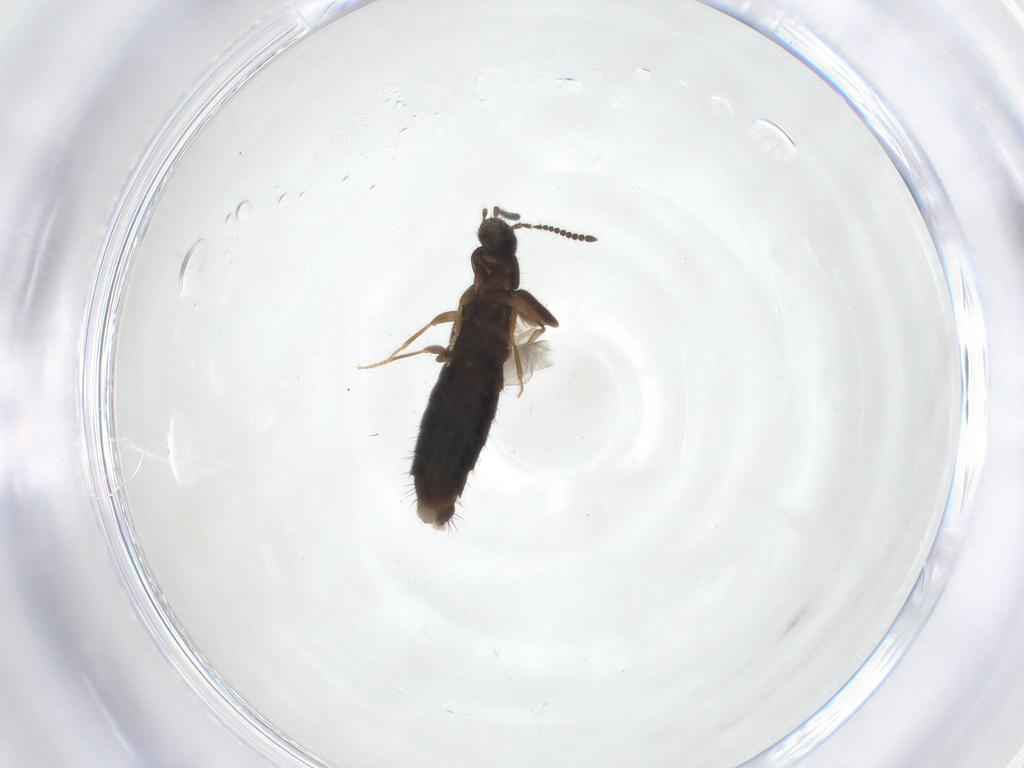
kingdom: Animalia
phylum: Arthropoda
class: Insecta
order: Coleoptera
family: Staphylinidae
